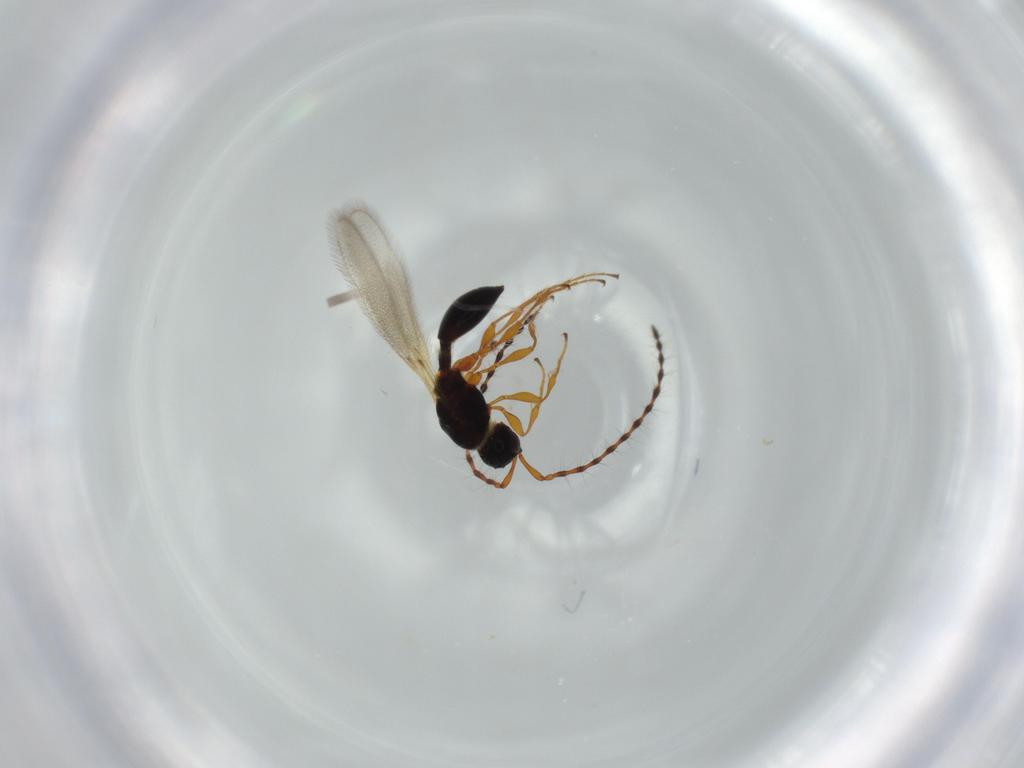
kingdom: Animalia
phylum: Arthropoda
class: Insecta
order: Hymenoptera
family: Diapriidae
